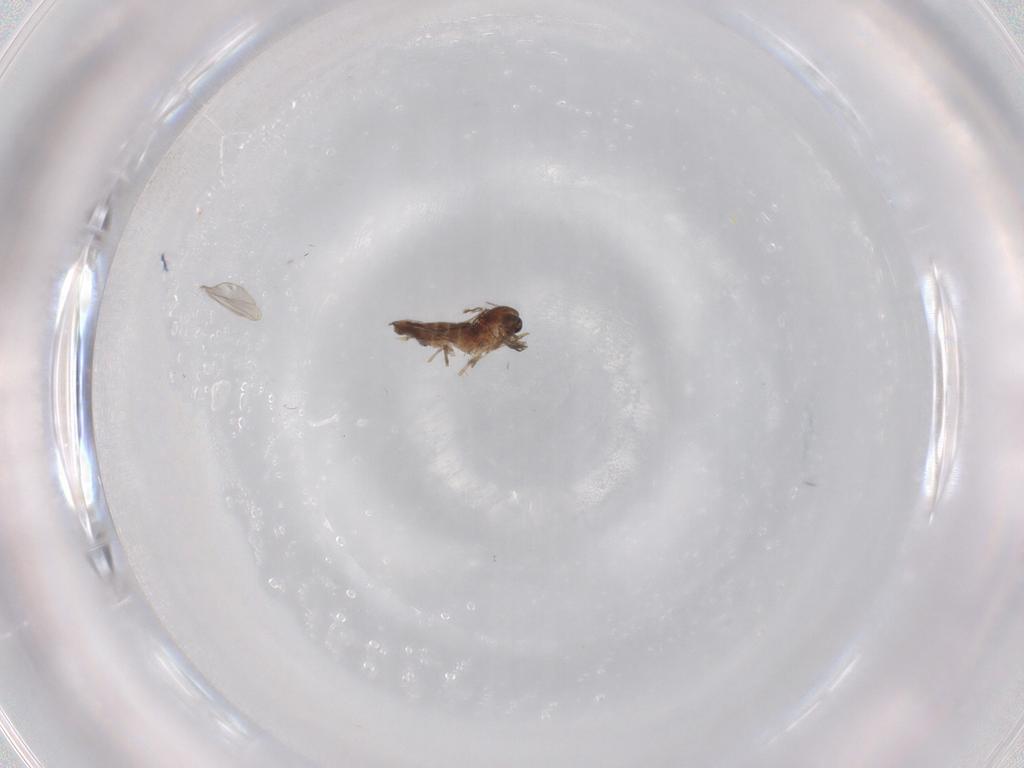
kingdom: Animalia
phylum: Arthropoda
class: Insecta
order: Diptera
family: Chironomidae
